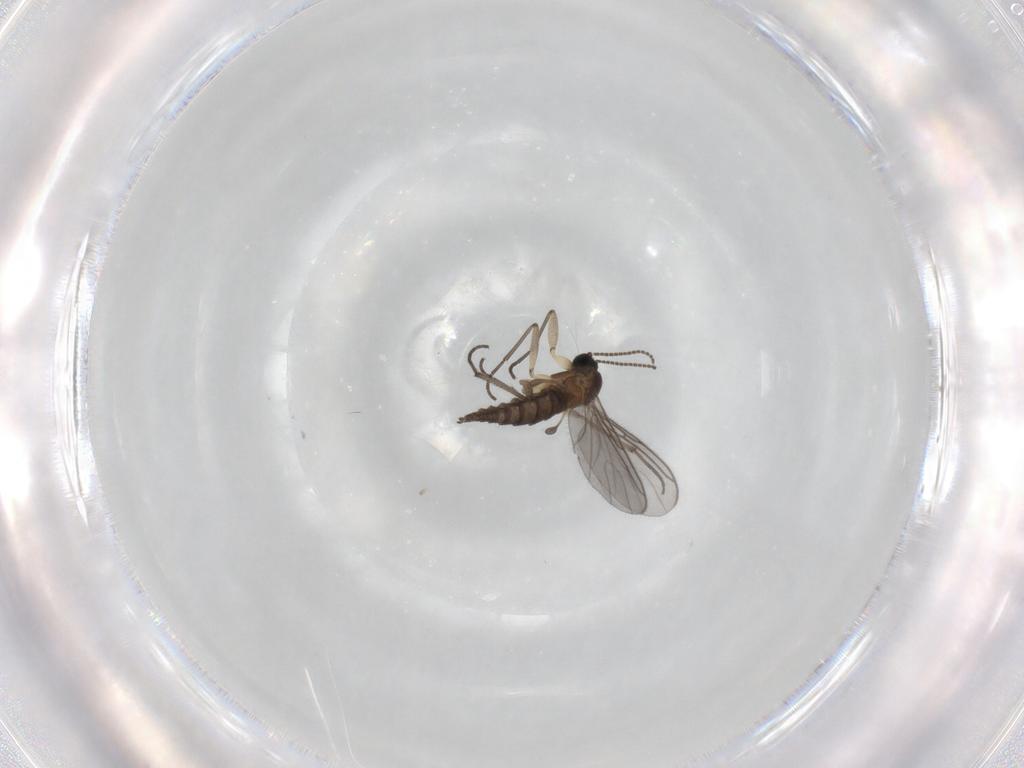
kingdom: Animalia
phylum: Arthropoda
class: Insecta
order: Diptera
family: Sciaridae
